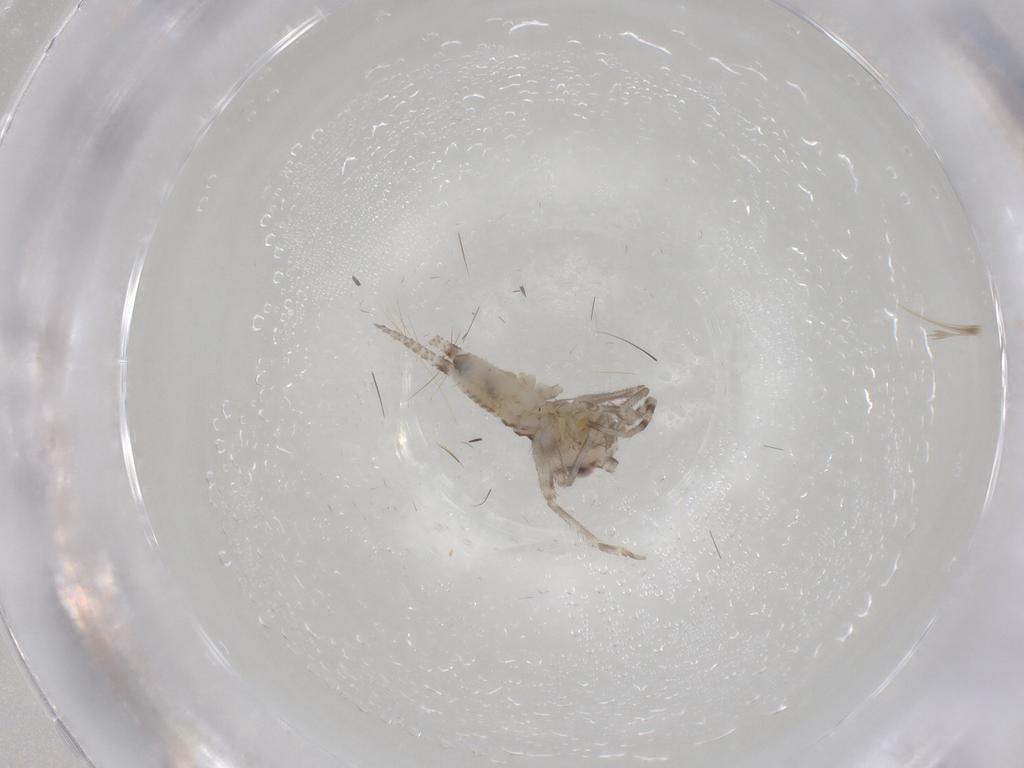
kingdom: Animalia
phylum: Arthropoda
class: Insecta
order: Orthoptera
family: Trigonidiidae
